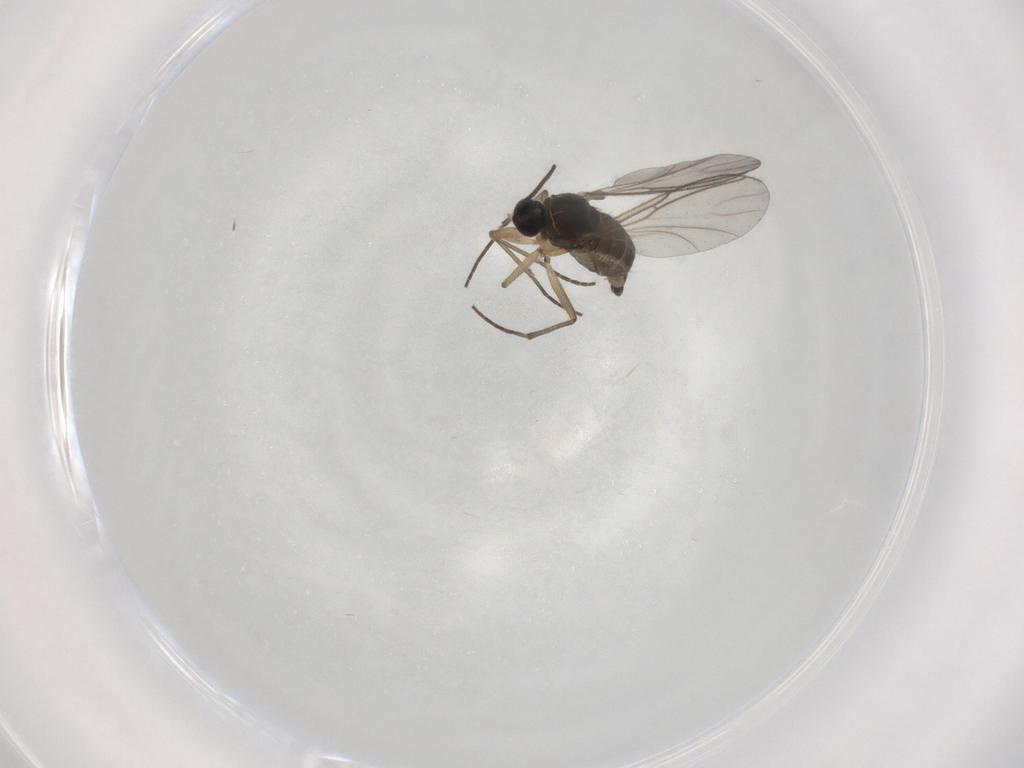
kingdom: Animalia
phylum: Arthropoda
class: Insecta
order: Diptera
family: Sciaridae
